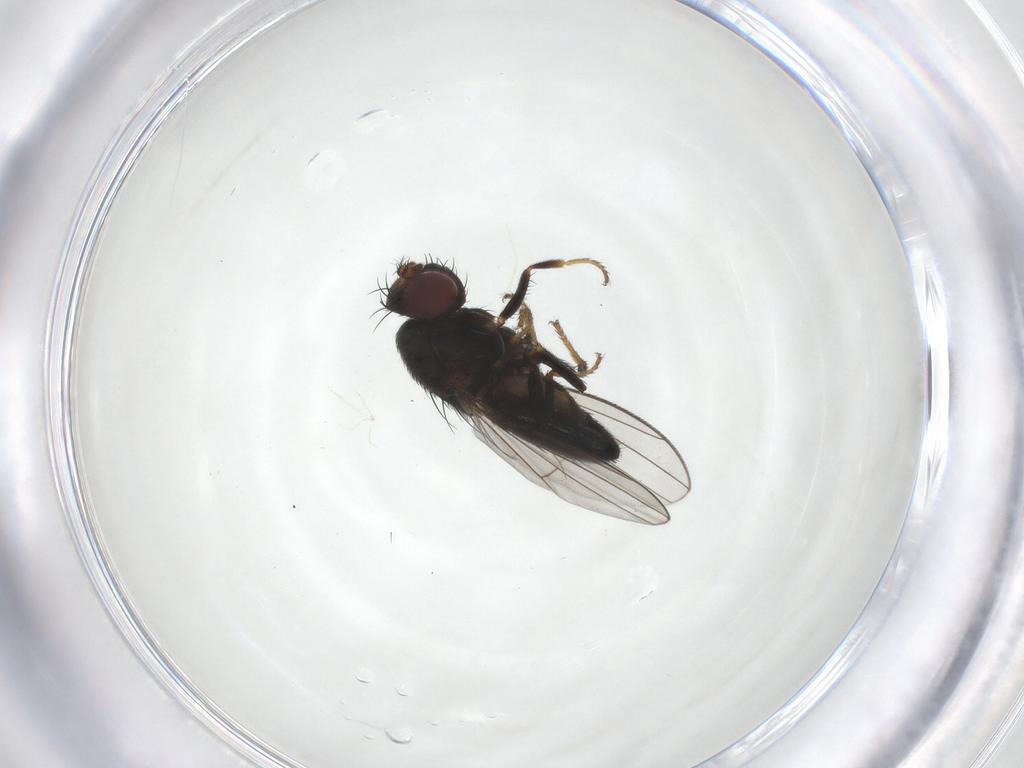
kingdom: Animalia
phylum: Arthropoda
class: Insecta
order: Diptera
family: Ephydridae
